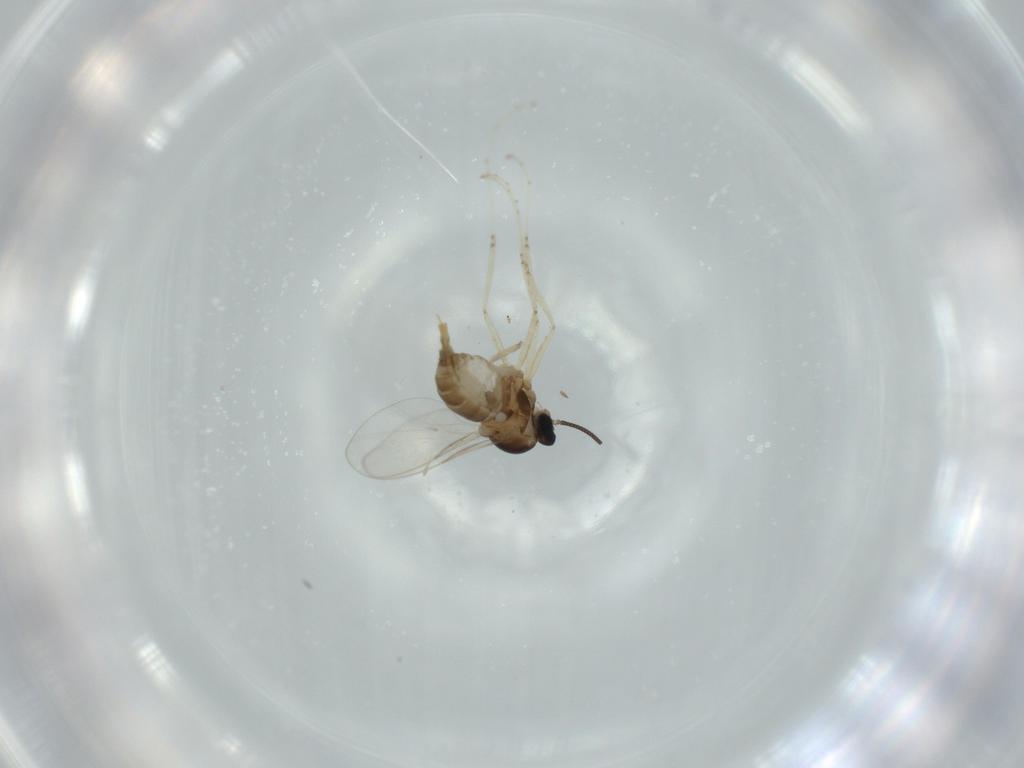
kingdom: Animalia
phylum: Arthropoda
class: Insecta
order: Diptera
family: Cecidomyiidae
